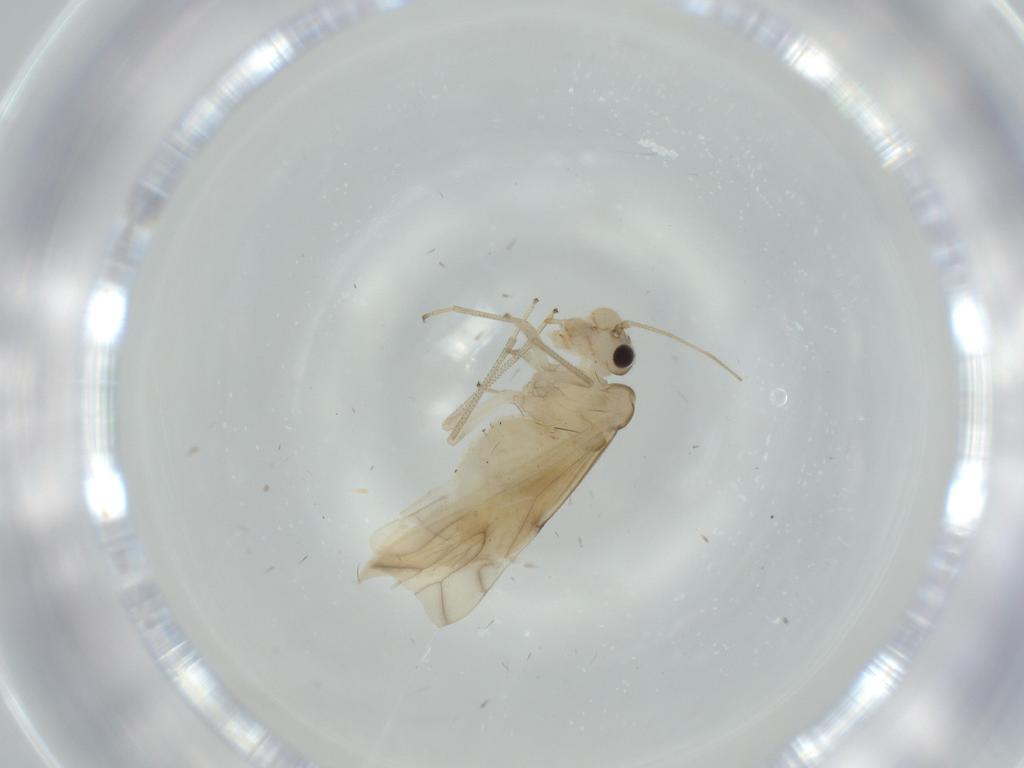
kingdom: Animalia
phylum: Arthropoda
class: Insecta
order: Psocodea
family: Caeciliusidae
